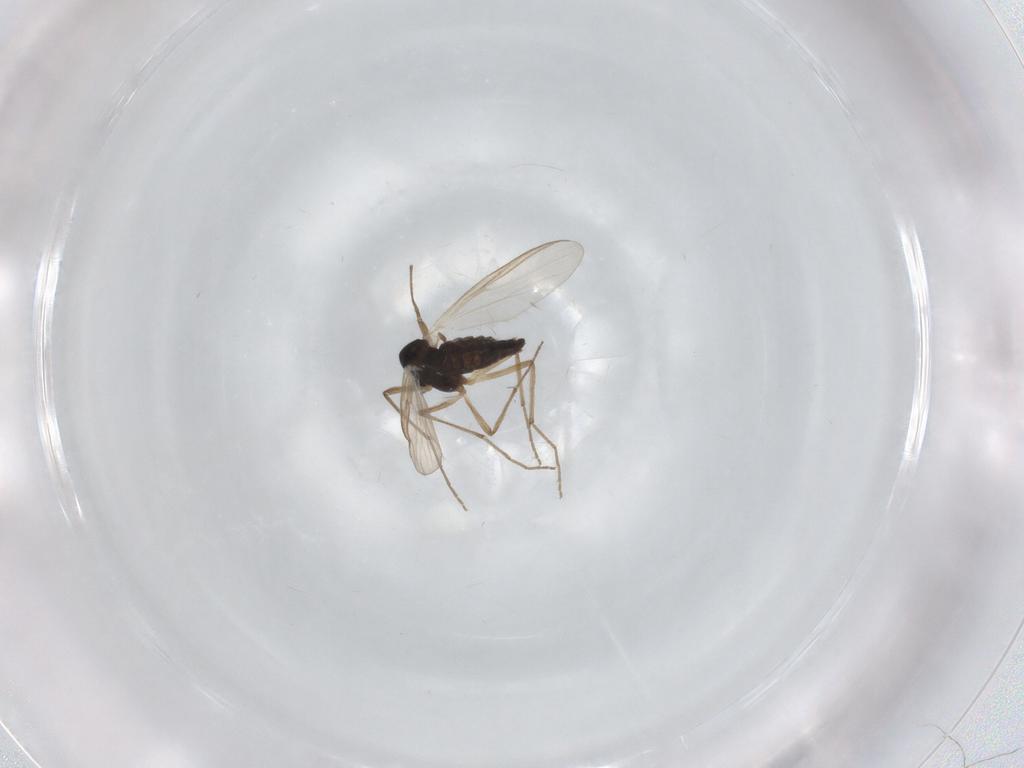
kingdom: Animalia
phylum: Arthropoda
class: Insecta
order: Diptera
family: Chironomidae
